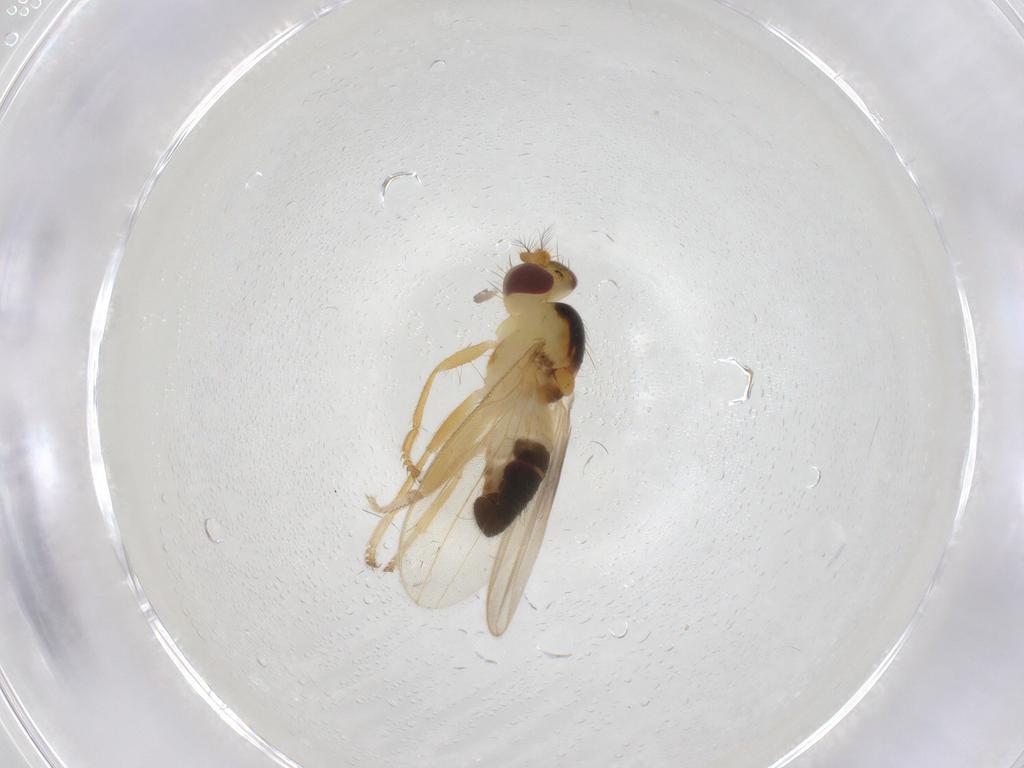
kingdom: Animalia
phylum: Arthropoda
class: Insecta
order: Diptera
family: Periscelididae
